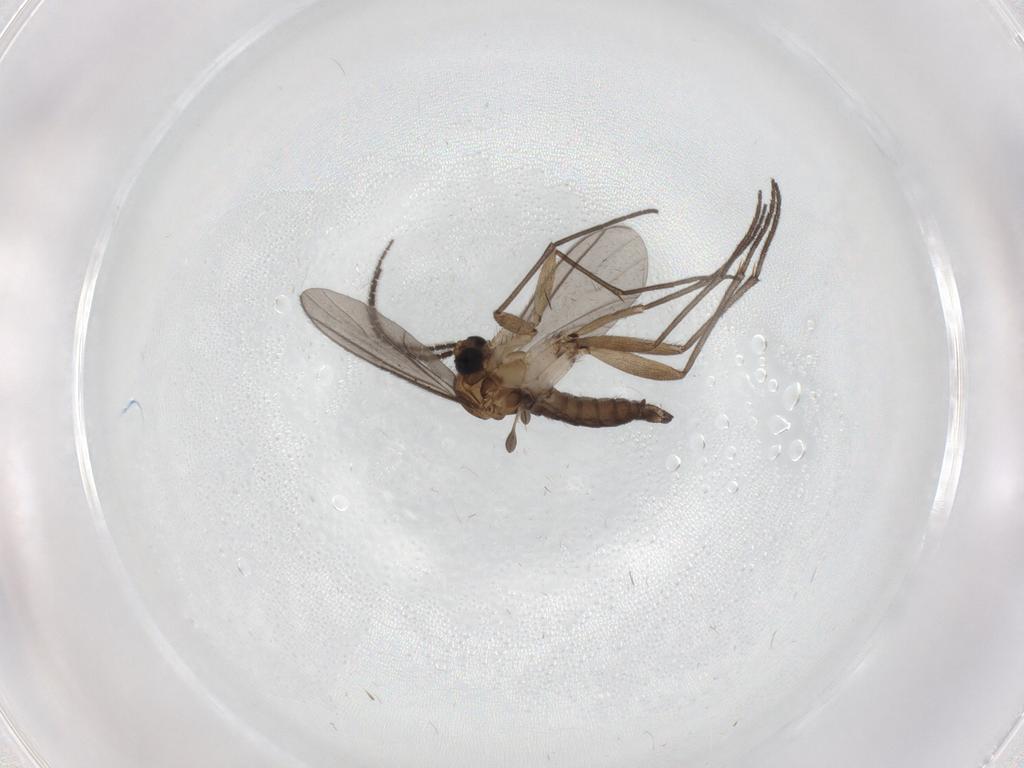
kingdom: Animalia
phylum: Arthropoda
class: Insecta
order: Diptera
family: Sciaridae
